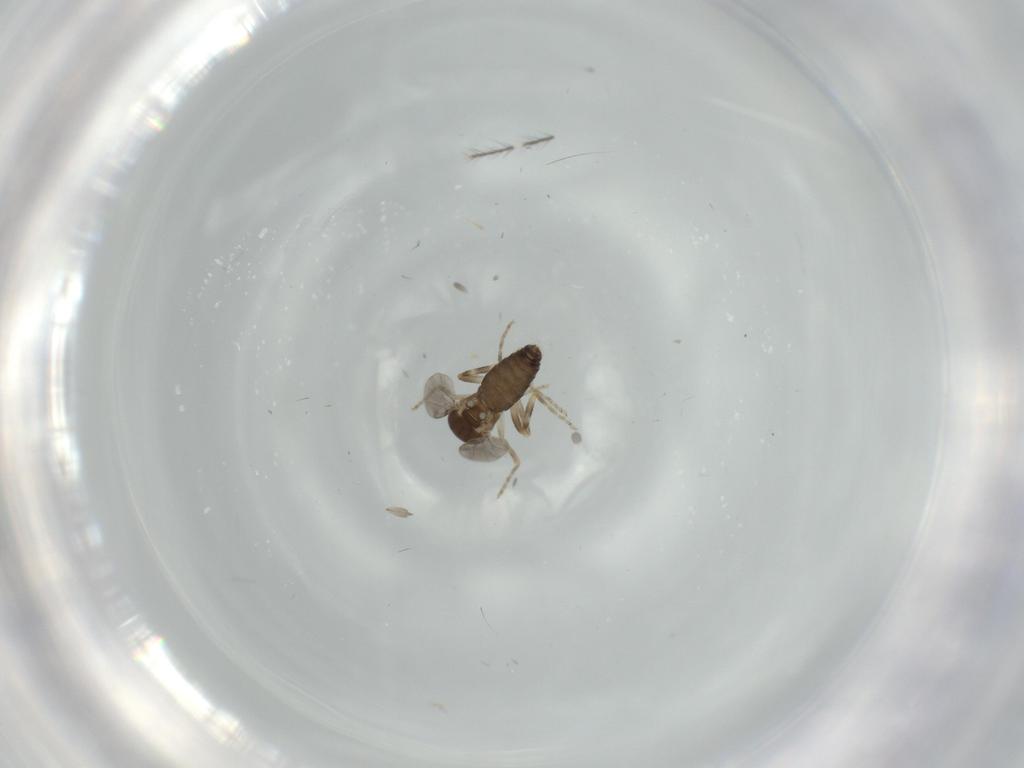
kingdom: Animalia
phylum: Arthropoda
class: Insecta
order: Diptera
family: Ceratopogonidae
